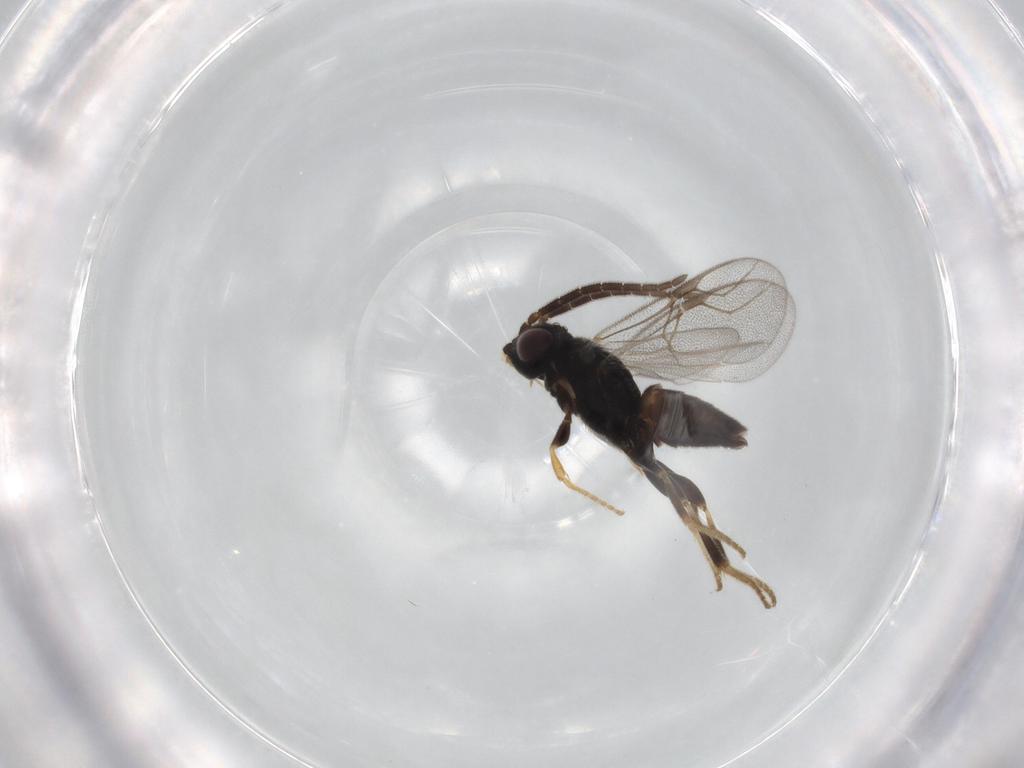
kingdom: Animalia
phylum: Arthropoda
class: Insecta
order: Hymenoptera
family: Dryinidae
